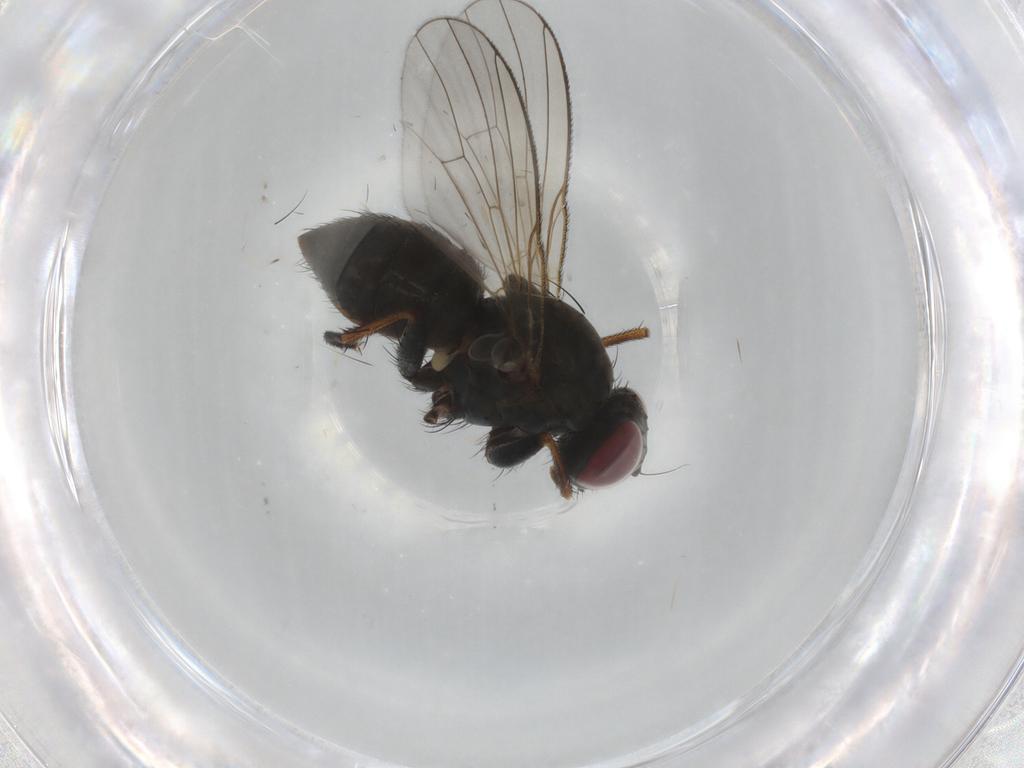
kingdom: Animalia
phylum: Arthropoda
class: Insecta
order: Diptera
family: Muscidae
